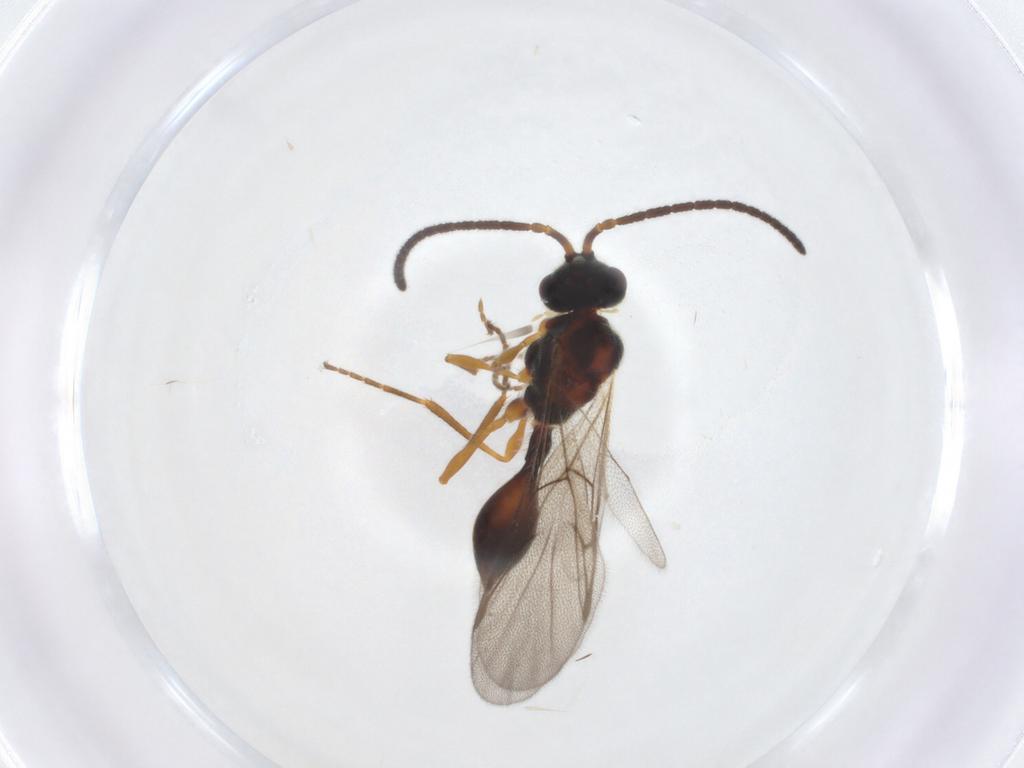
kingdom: Animalia
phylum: Arthropoda
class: Insecta
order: Hymenoptera
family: Diapriidae
